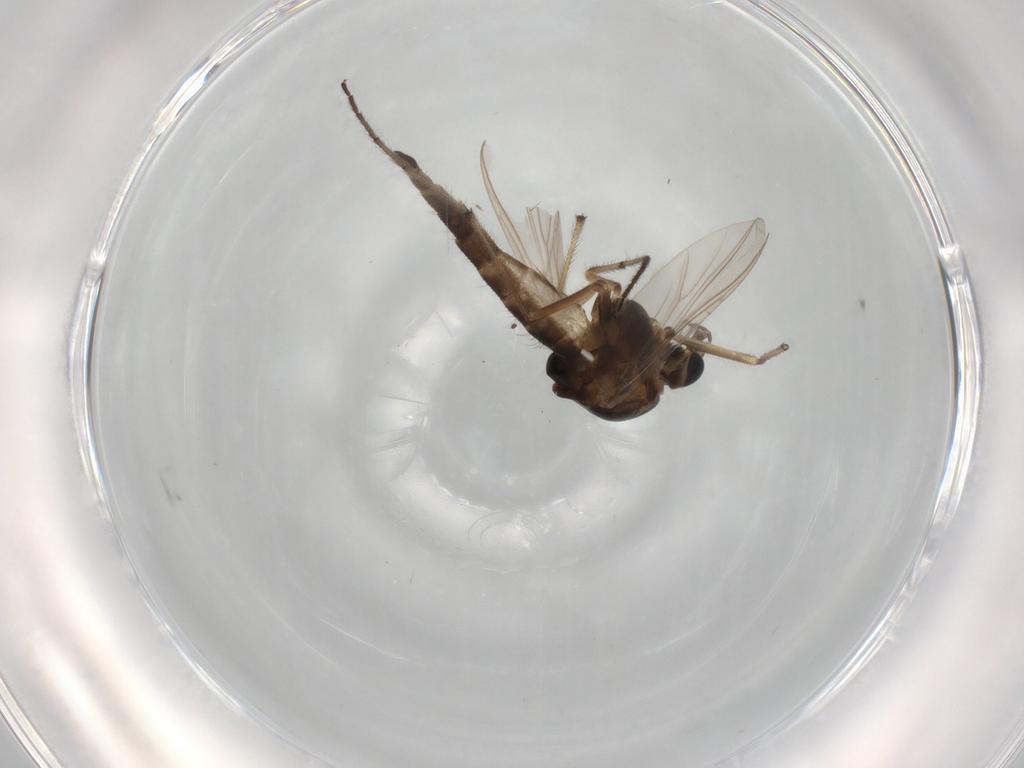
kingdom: Animalia
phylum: Arthropoda
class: Insecta
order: Diptera
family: Chironomidae
